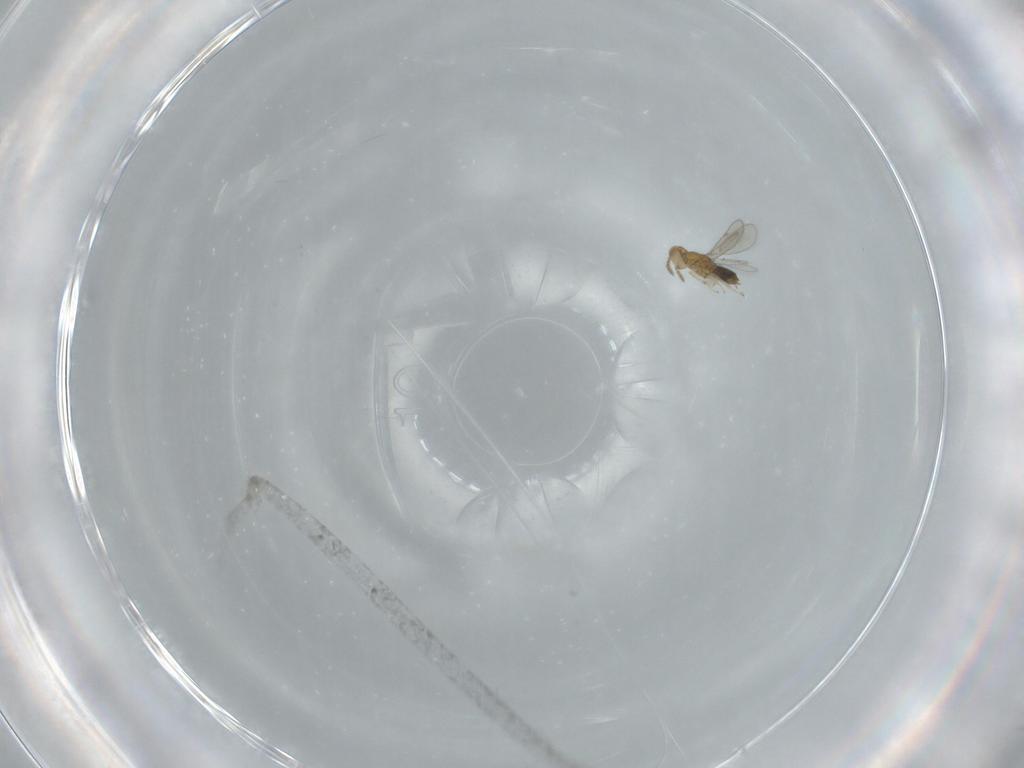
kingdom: Animalia
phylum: Arthropoda
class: Insecta
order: Hymenoptera
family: Aphelinidae
